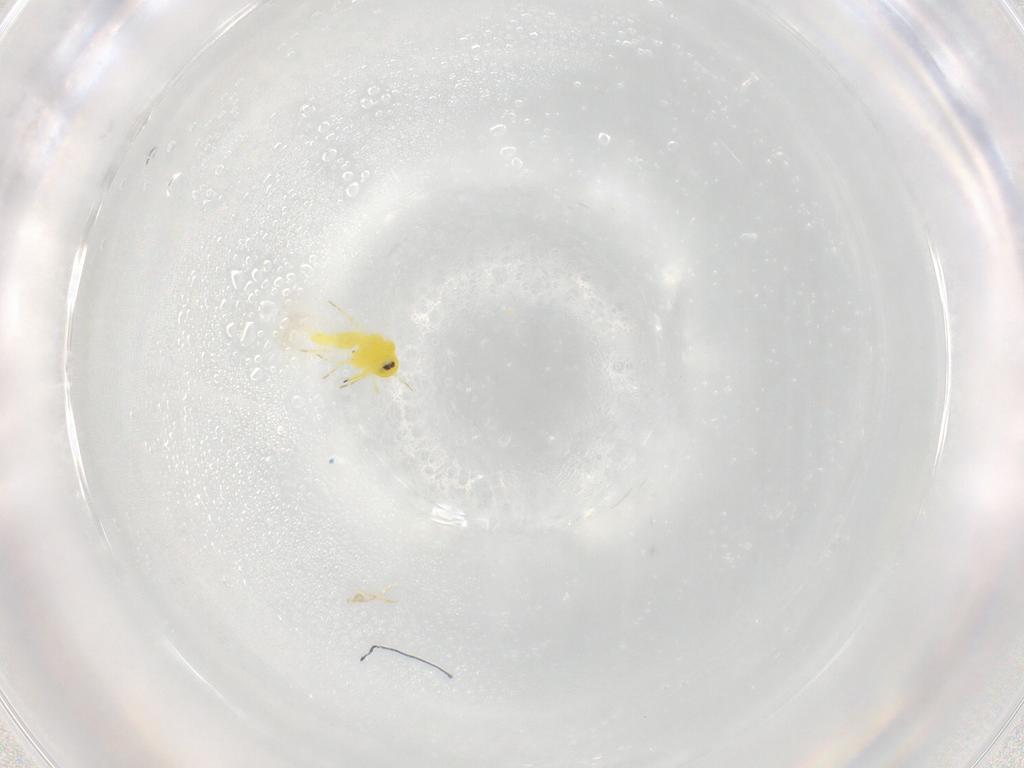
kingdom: Animalia
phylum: Arthropoda
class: Insecta
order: Hemiptera
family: Aleyrodidae
